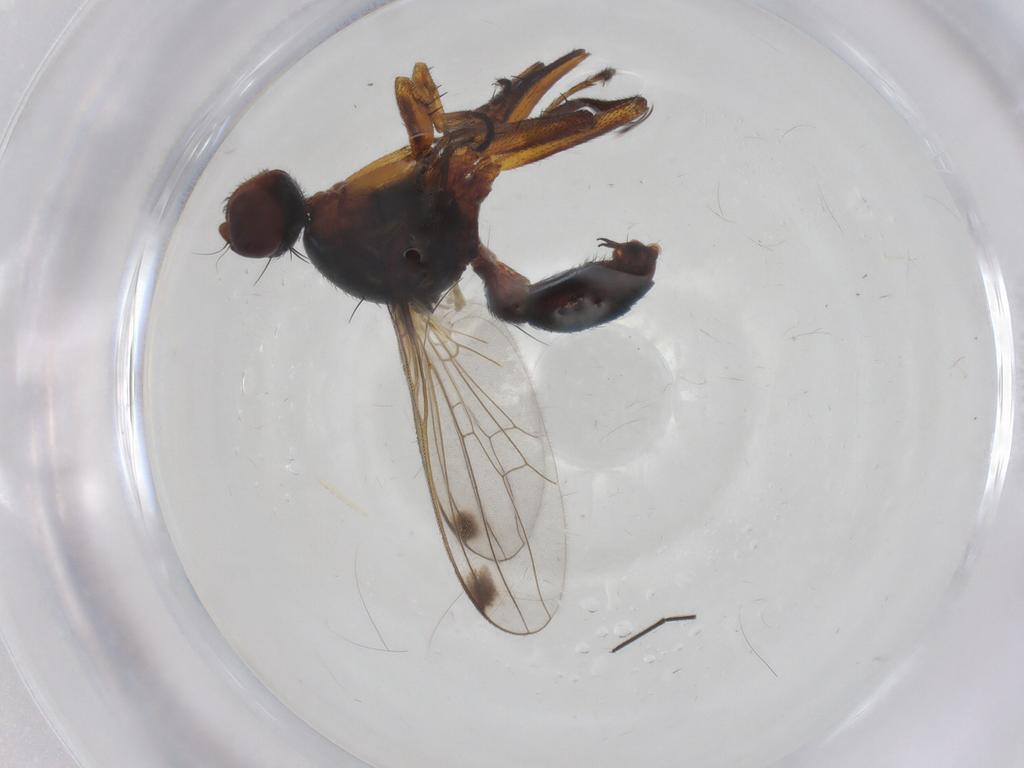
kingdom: Animalia
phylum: Arthropoda
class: Insecta
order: Diptera
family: Sepsidae
